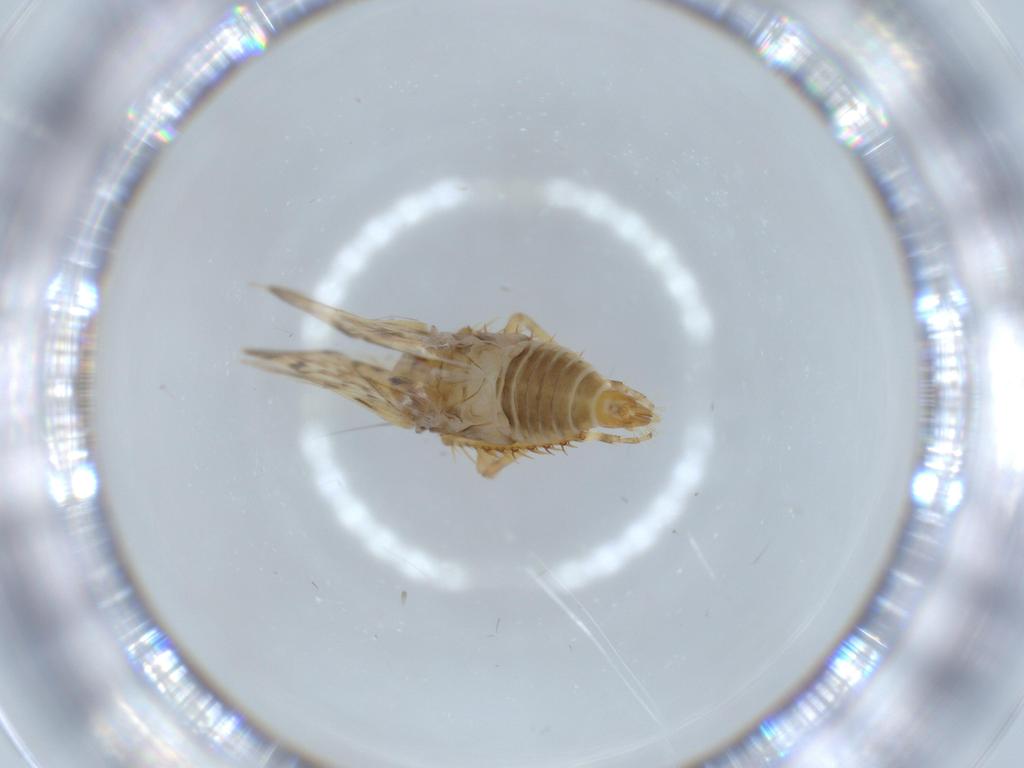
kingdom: Animalia
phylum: Arthropoda
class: Insecta
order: Hemiptera
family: Cicadellidae
